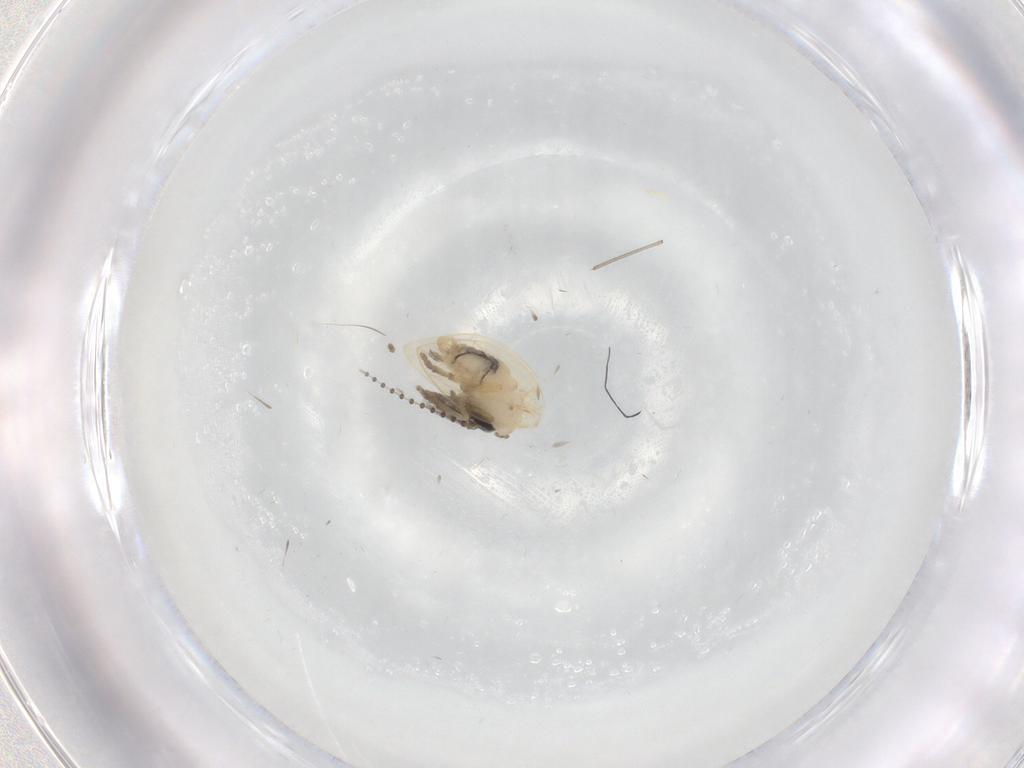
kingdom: Animalia
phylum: Arthropoda
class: Insecta
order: Diptera
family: Psychodidae
